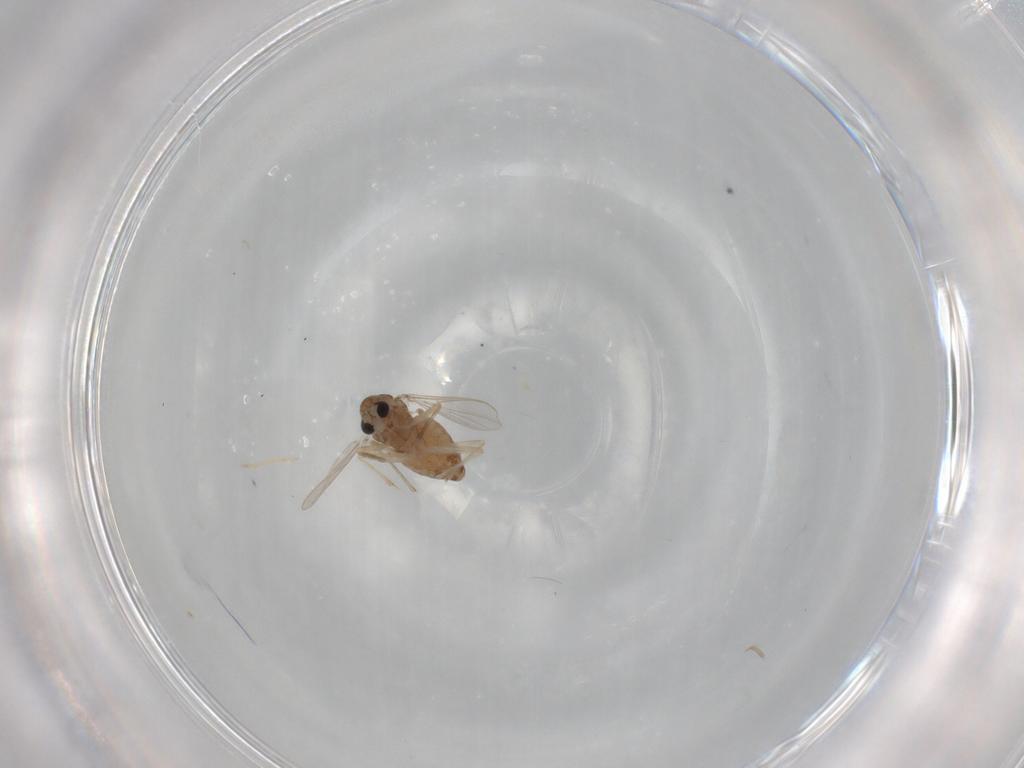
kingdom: Animalia
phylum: Arthropoda
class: Insecta
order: Diptera
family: Chironomidae
